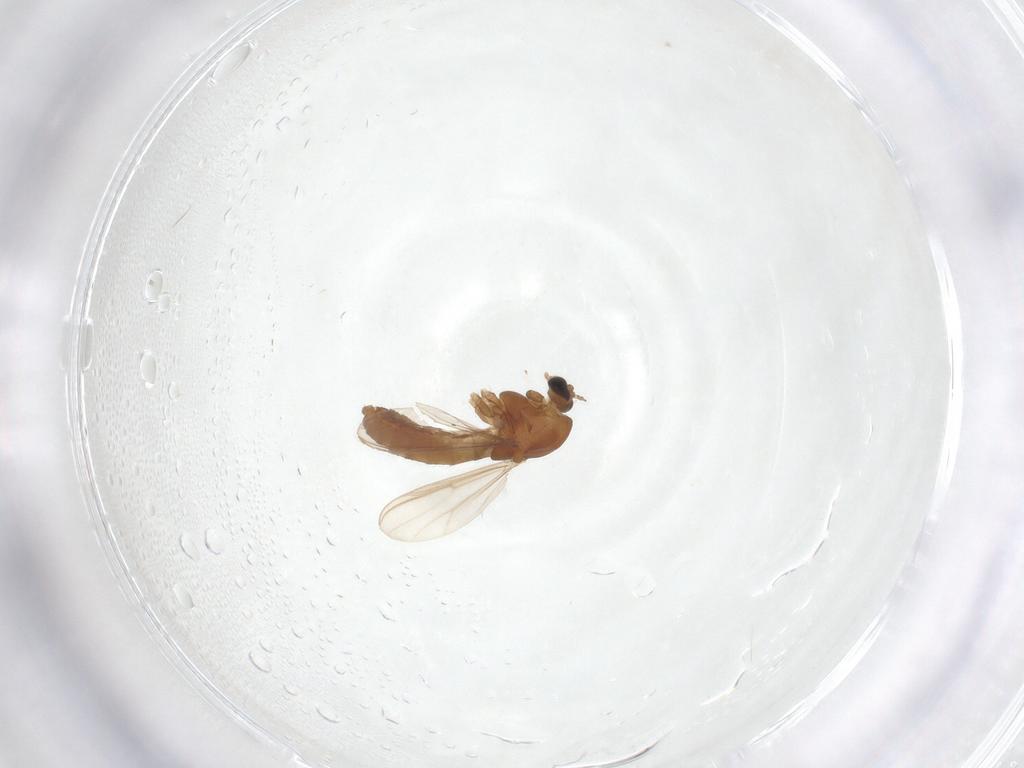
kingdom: Animalia
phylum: Arthropoda
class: Insecta
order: Diptera
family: Chironomidae
